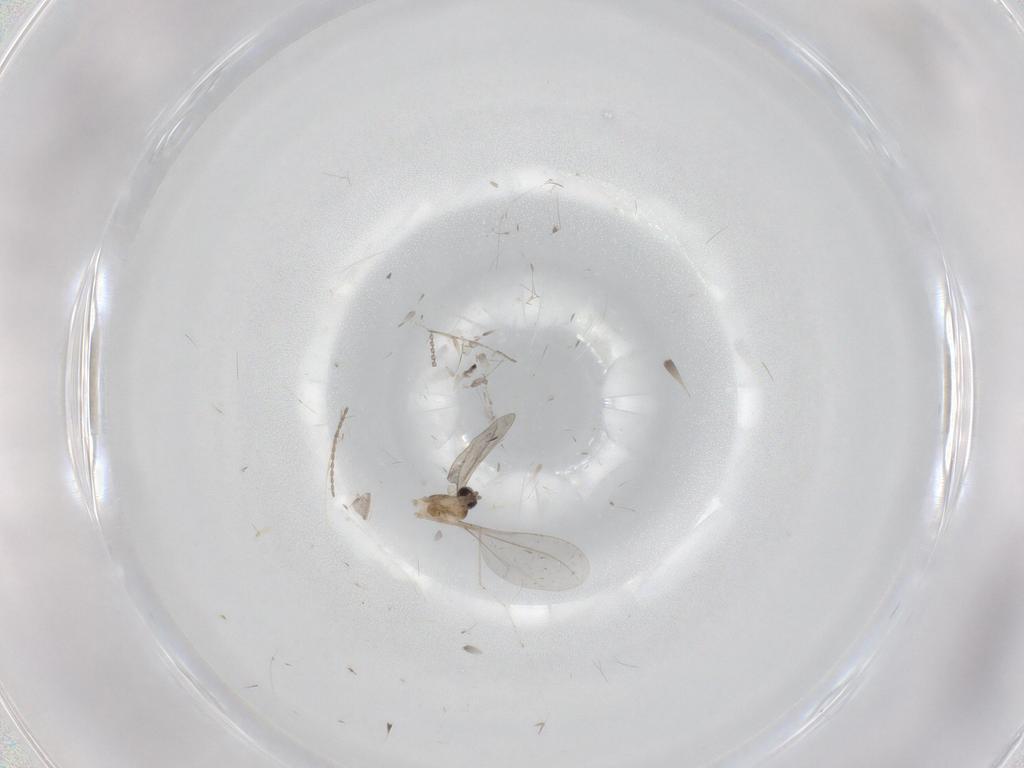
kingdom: Animalia
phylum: Arthropoda
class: Insecta
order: Diptera
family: Cecidomyiidae
